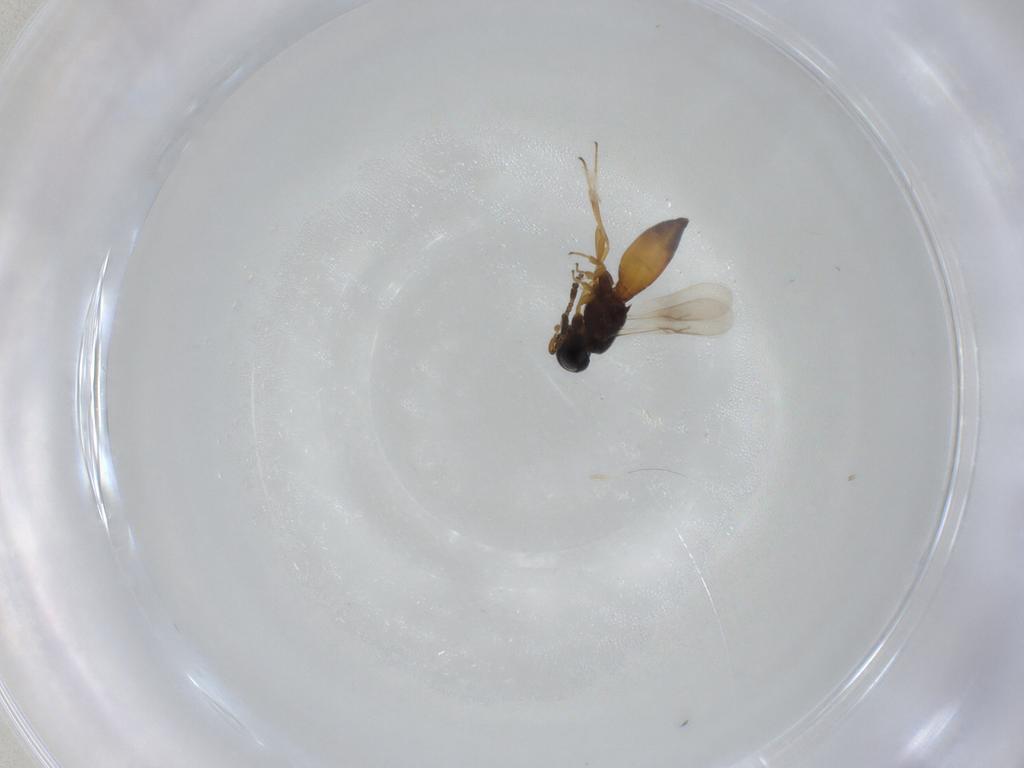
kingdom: Animalia
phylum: Arthropoda
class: Insecta
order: Hymenoptera
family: Scelionidae
